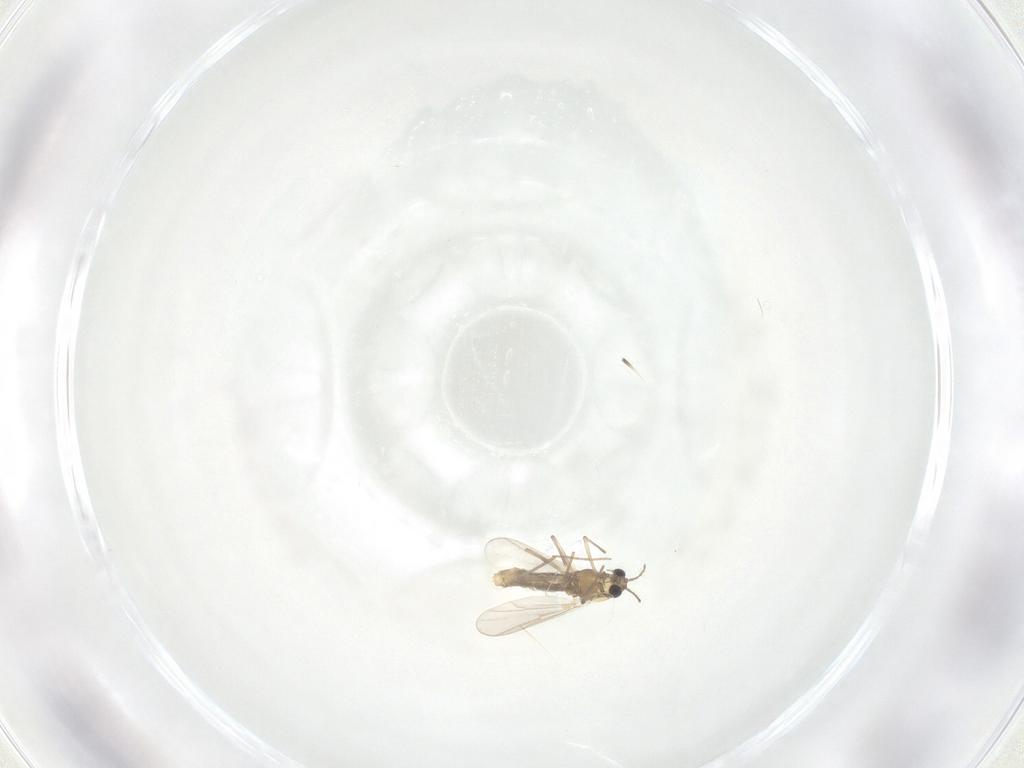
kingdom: Animalia
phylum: Arthropoda
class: Insecta
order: Diptera
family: Chironomidae
